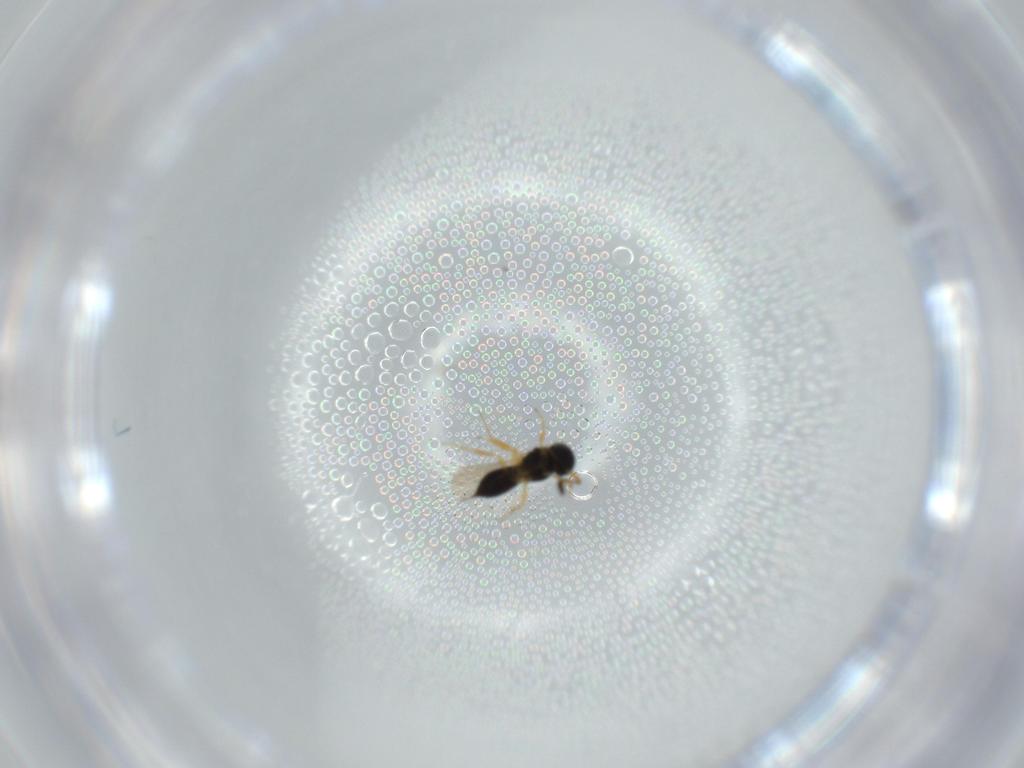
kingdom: Animalia
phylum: Arthropoda
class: Insecta
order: Hymenoptera
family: Scelionidae
